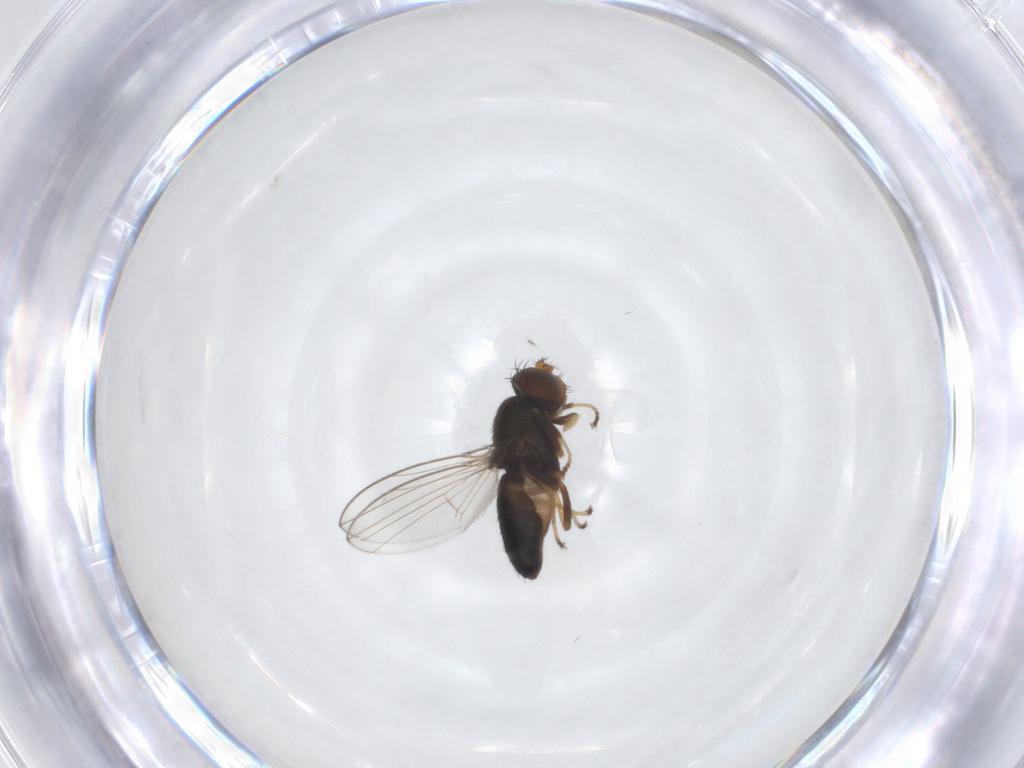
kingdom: Animalia
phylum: Arthropoda
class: Insecta
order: Diptera
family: Ephydridae
